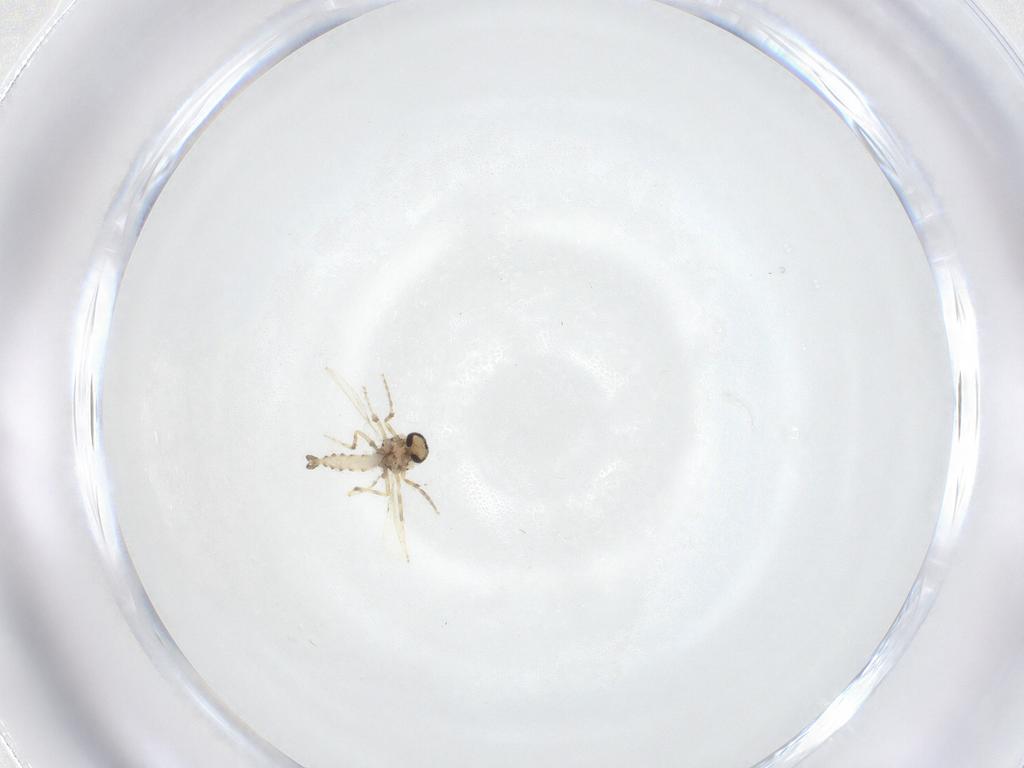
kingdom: Animalia
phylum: Arthropoda
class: Insecta
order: Diptera
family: Ceratopogonidae
